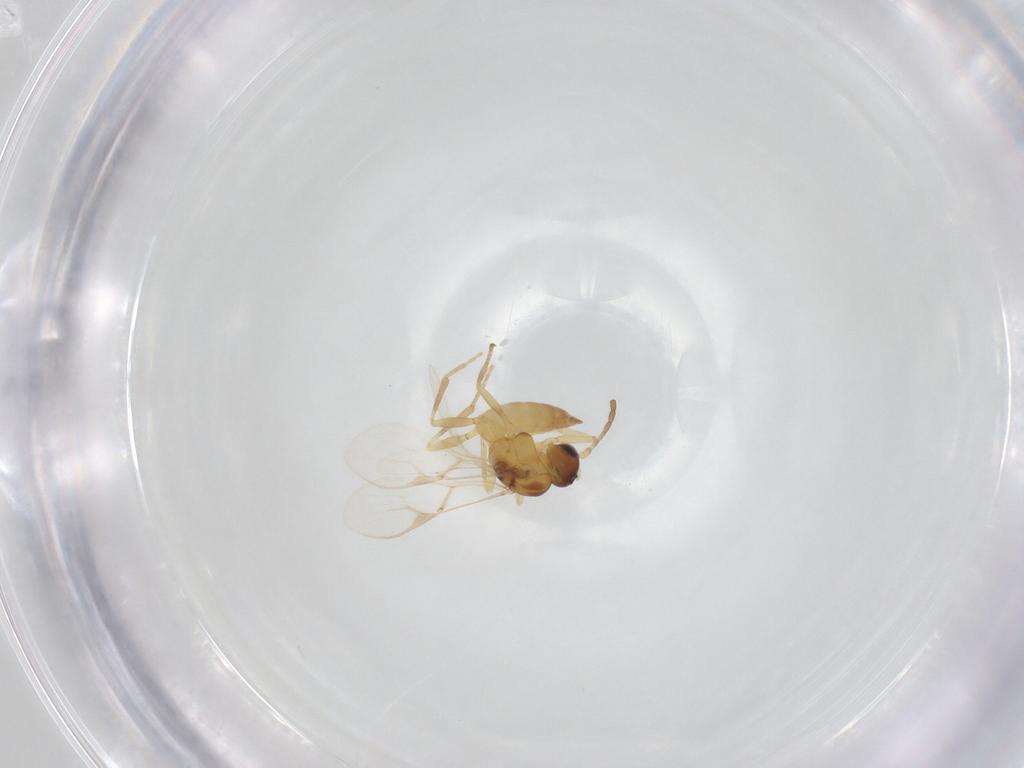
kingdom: Animalia
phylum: Arthropoda
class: Insecta
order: Hymenoptera
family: Braconidae
